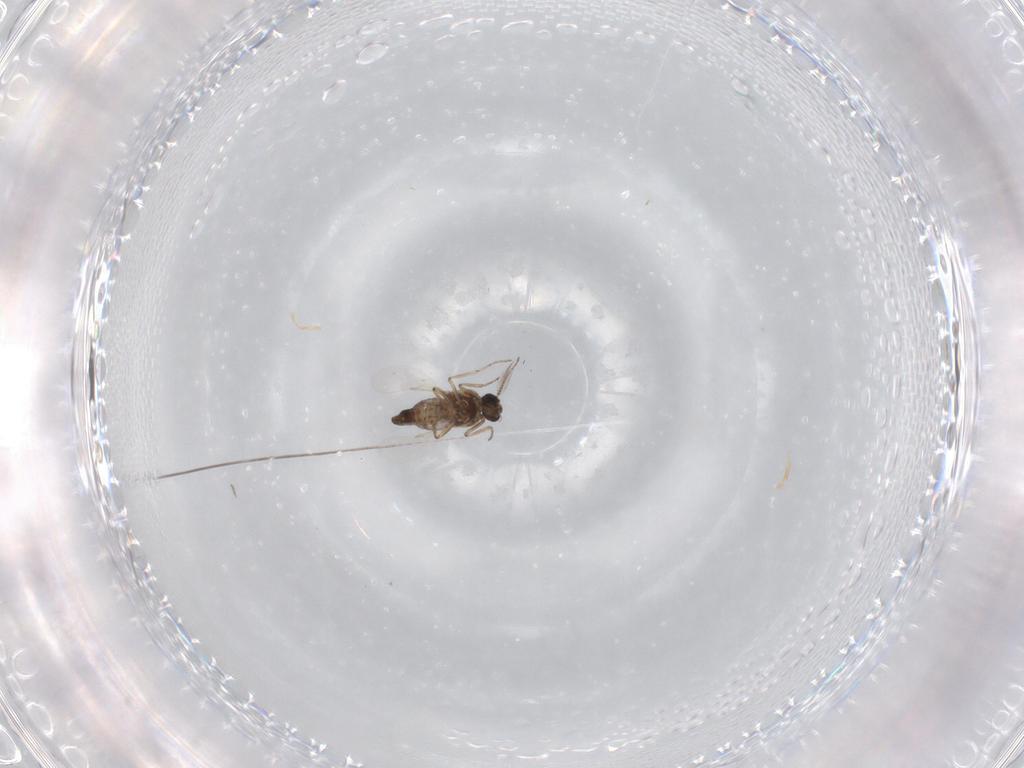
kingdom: Animalia
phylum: Arthropoda
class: Insecta
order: Diptera
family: Ceratopogonidae
